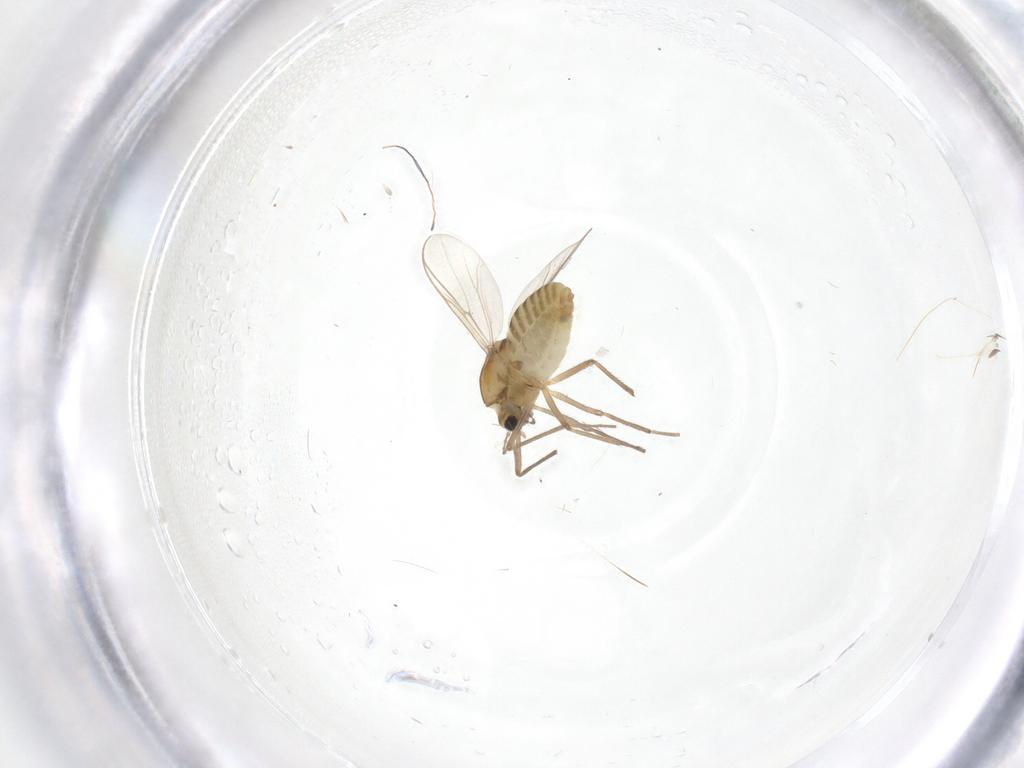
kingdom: Animalia
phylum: Arthropoda
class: Insecta
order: Diptera
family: Chironomidae
